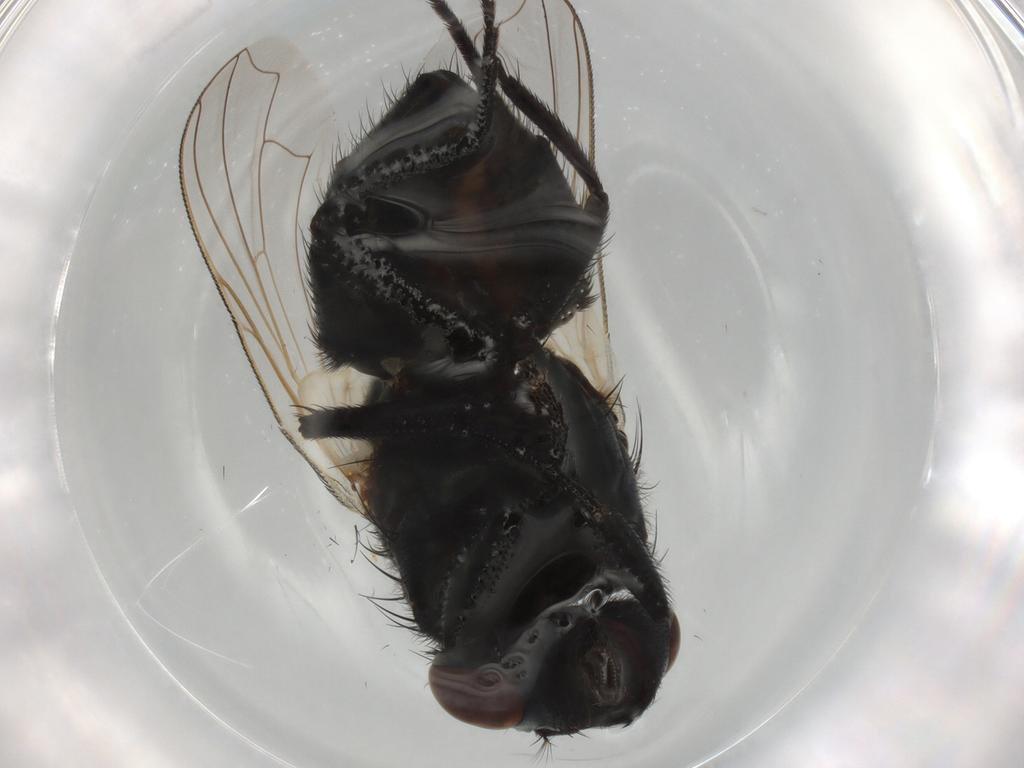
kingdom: Animalia
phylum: Arthropoda
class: Insecta
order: Diptera
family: Muscidae
